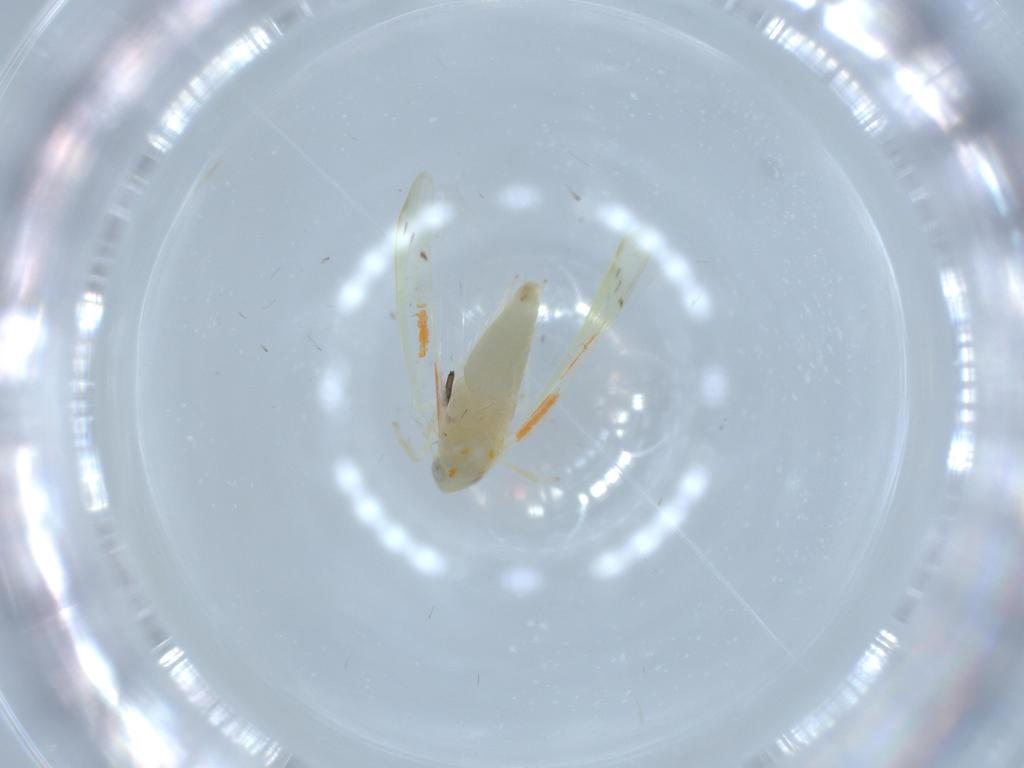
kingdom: Animalia
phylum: Arthropoda
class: Insecta
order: Hemiptera
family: Cicadellidae
